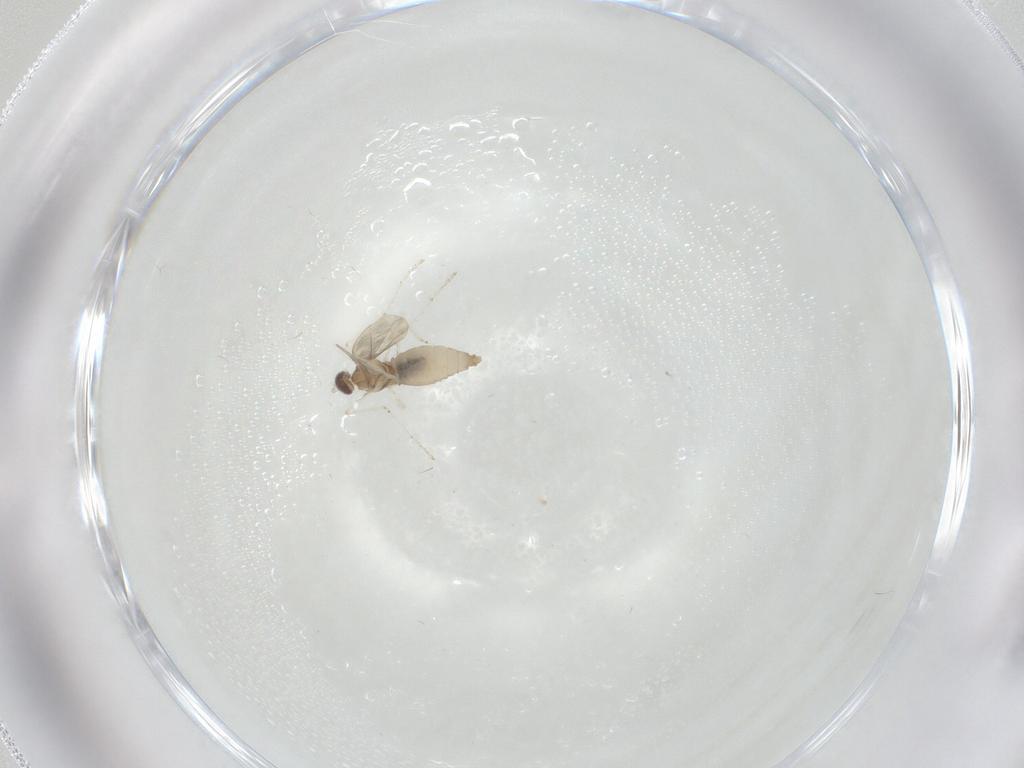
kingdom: Animalia
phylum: Arthropoda
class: Insecta
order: Diptera
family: Cecidomyiidae
